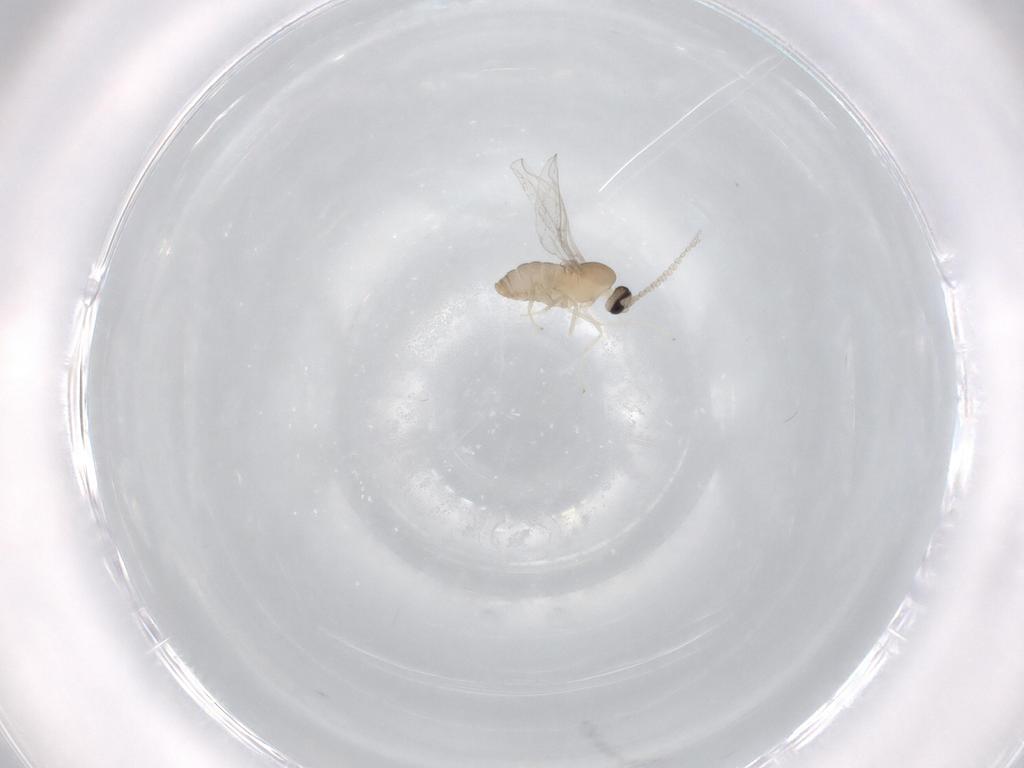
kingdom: Animalia
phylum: Arthropoda
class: Insecta
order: Diptera
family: Cecidomyiidae
